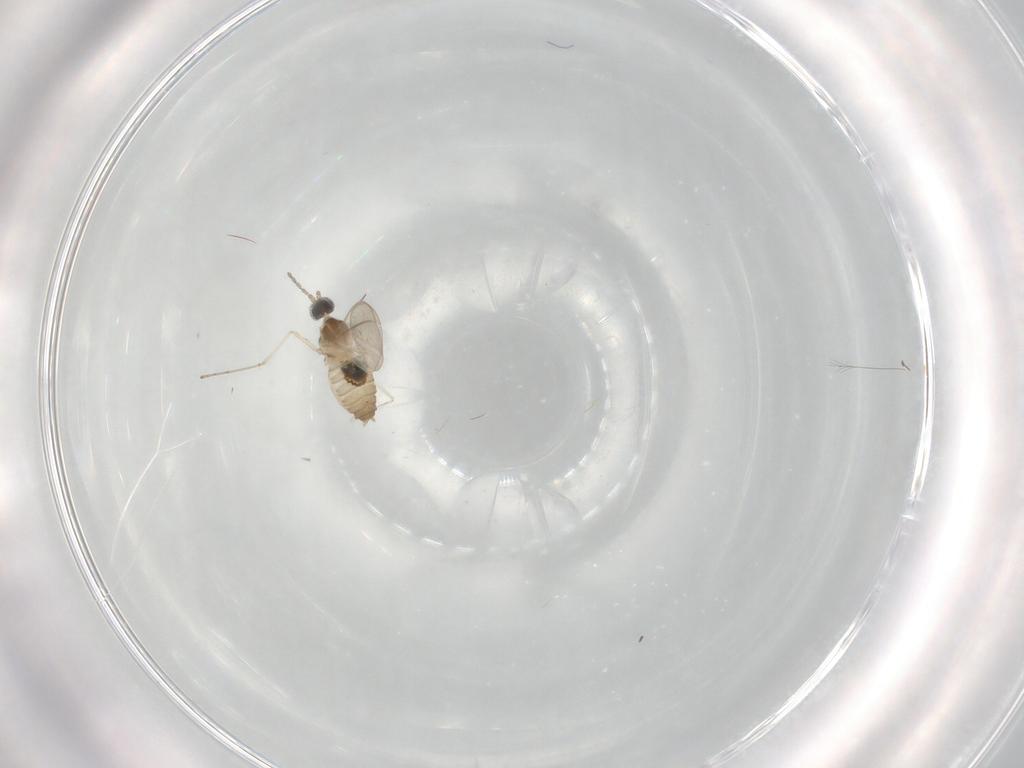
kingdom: Animalia
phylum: Arthropoda
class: Insecta
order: Diptera
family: Cecidomyiidae
